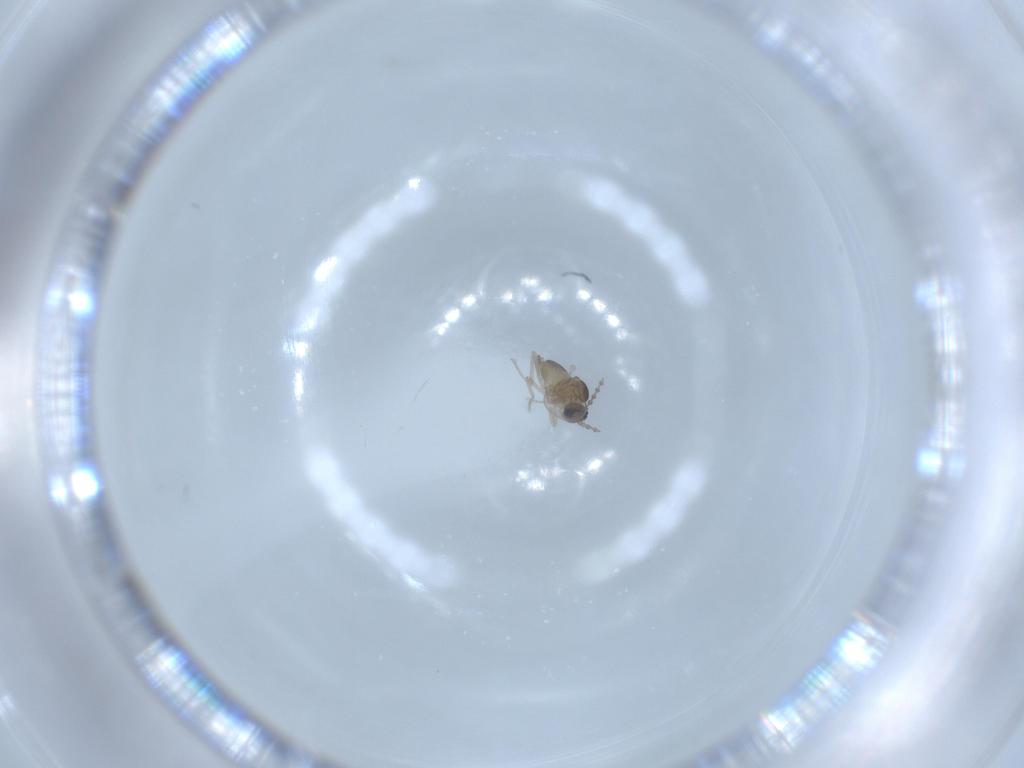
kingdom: Animalia
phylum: Arthropoda
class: Insecta
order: Diptera
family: Cecidomyiidae
